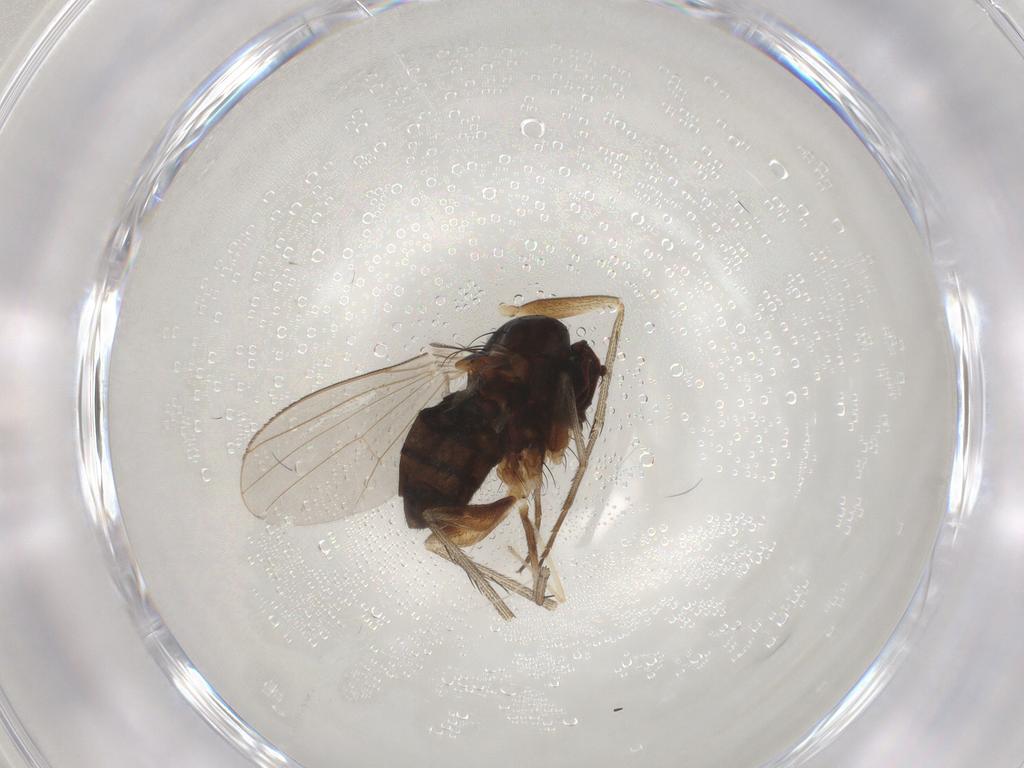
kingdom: Animalia
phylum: Arthropoda
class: Insecta
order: Diptera
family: Dolichopodidae
